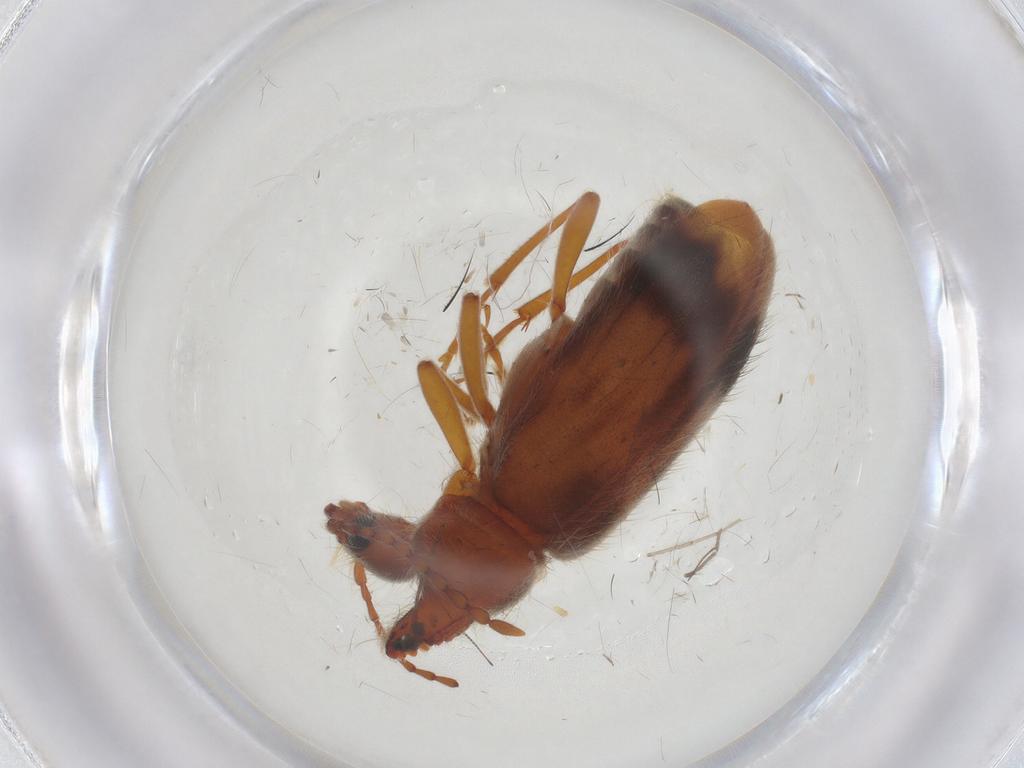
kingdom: Animalia
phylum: Arthropoda
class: Insecta
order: Coleoptera
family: Anthicidae
